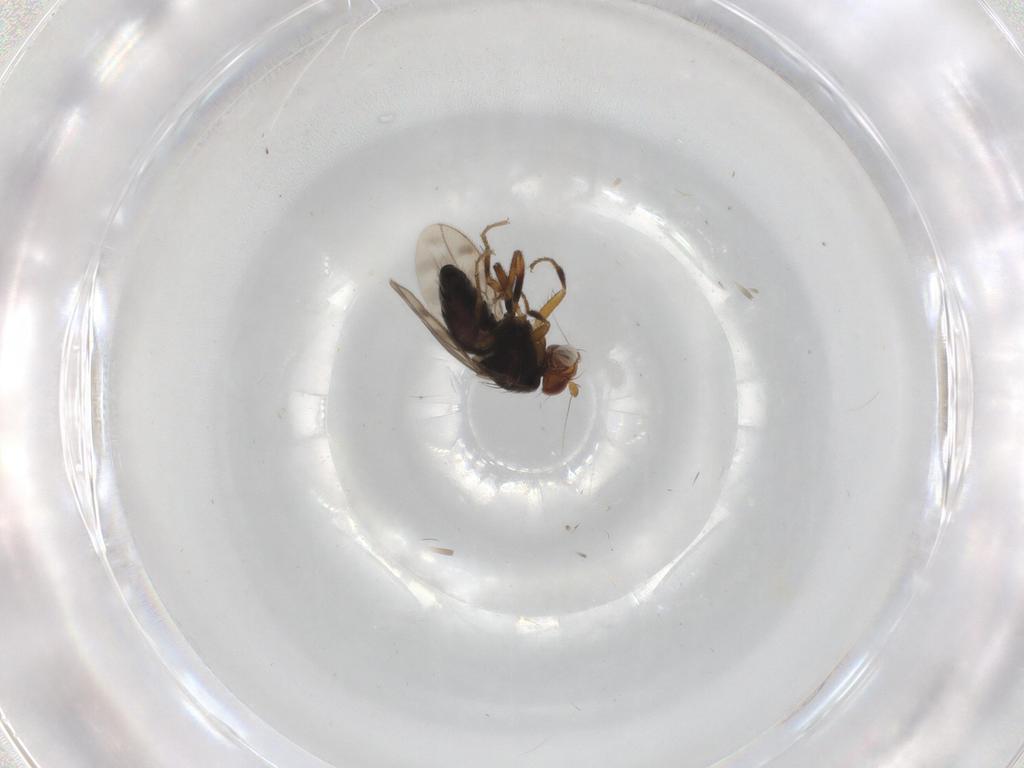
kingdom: Animalia
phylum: Arthropoda
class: Insecta
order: Diptera
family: Sphaeroceridae
